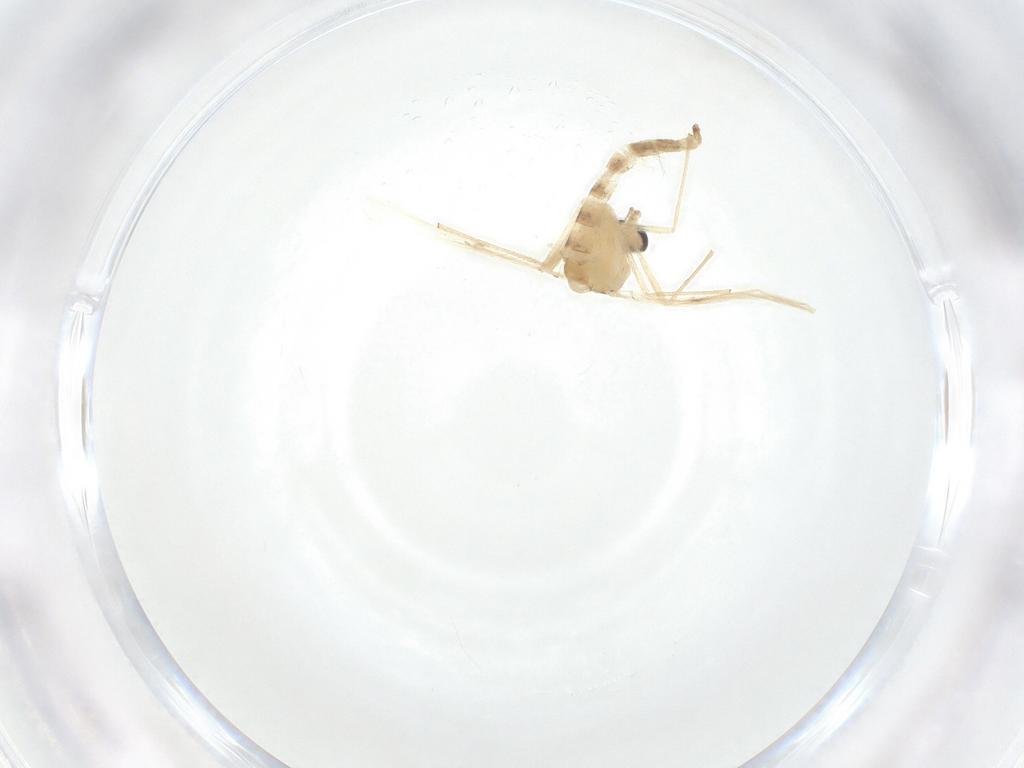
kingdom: Animalia
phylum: Arthropoda
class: Insecta
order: Diptera
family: Chironomidae
